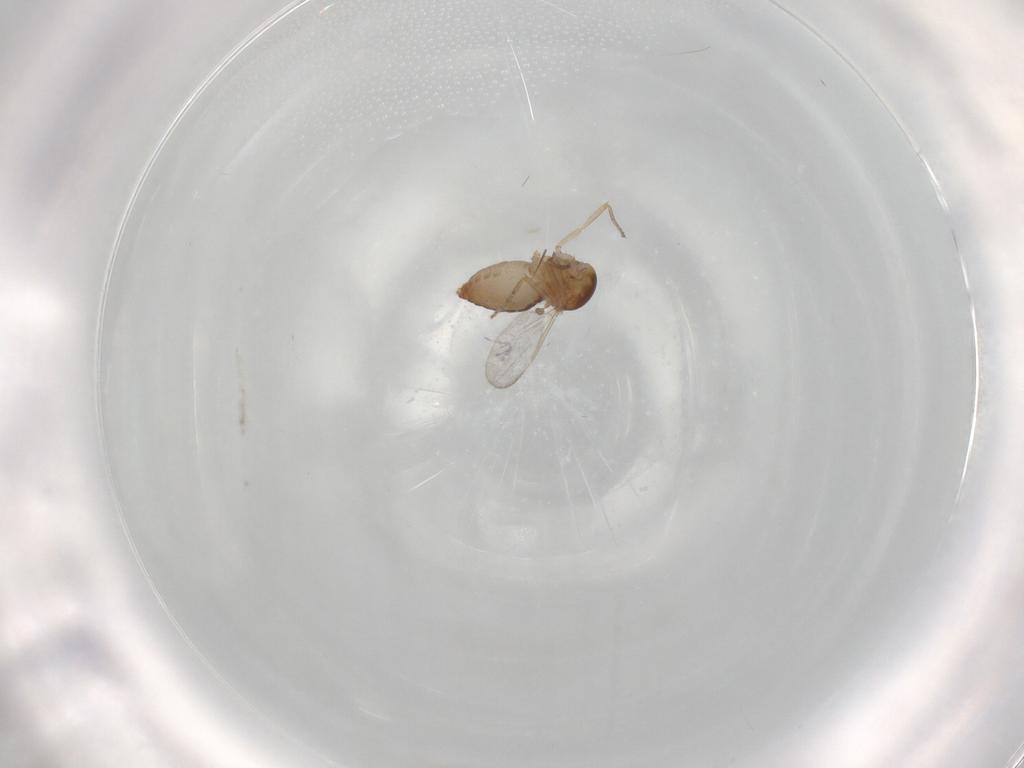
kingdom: Animalia
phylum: Arthropoda
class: Insecta
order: Diptera
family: Ceratopogonidae
